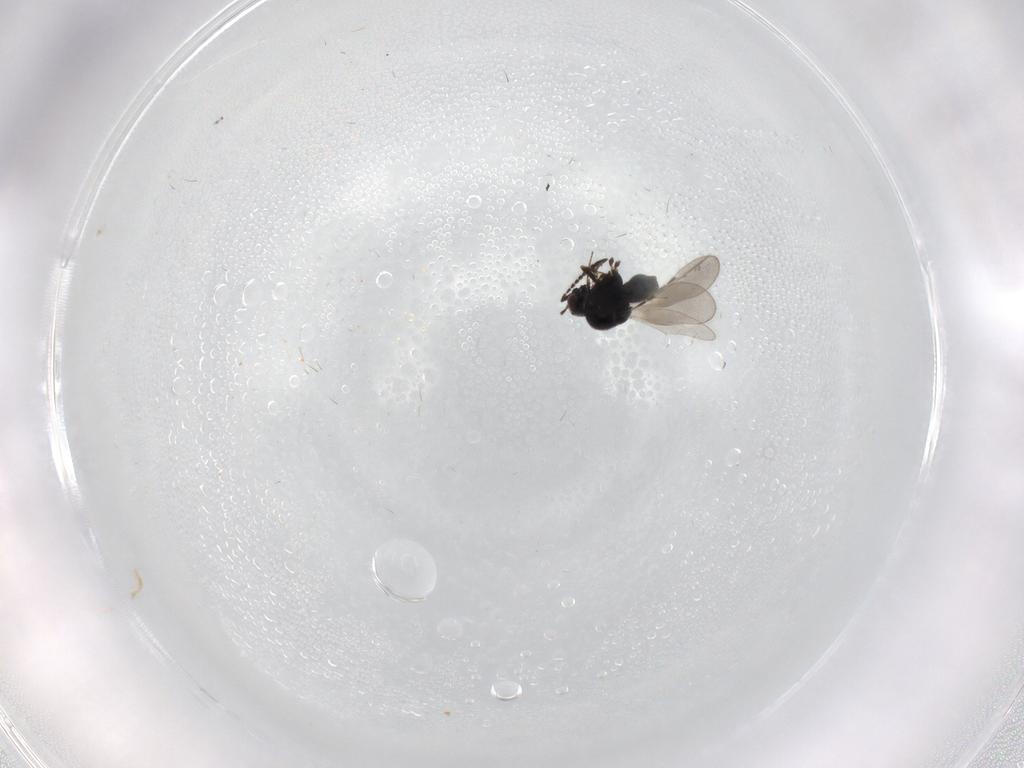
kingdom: Animalia
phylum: Arthropoda
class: Insecta
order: Hymenoptera
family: Ceraphronidae
